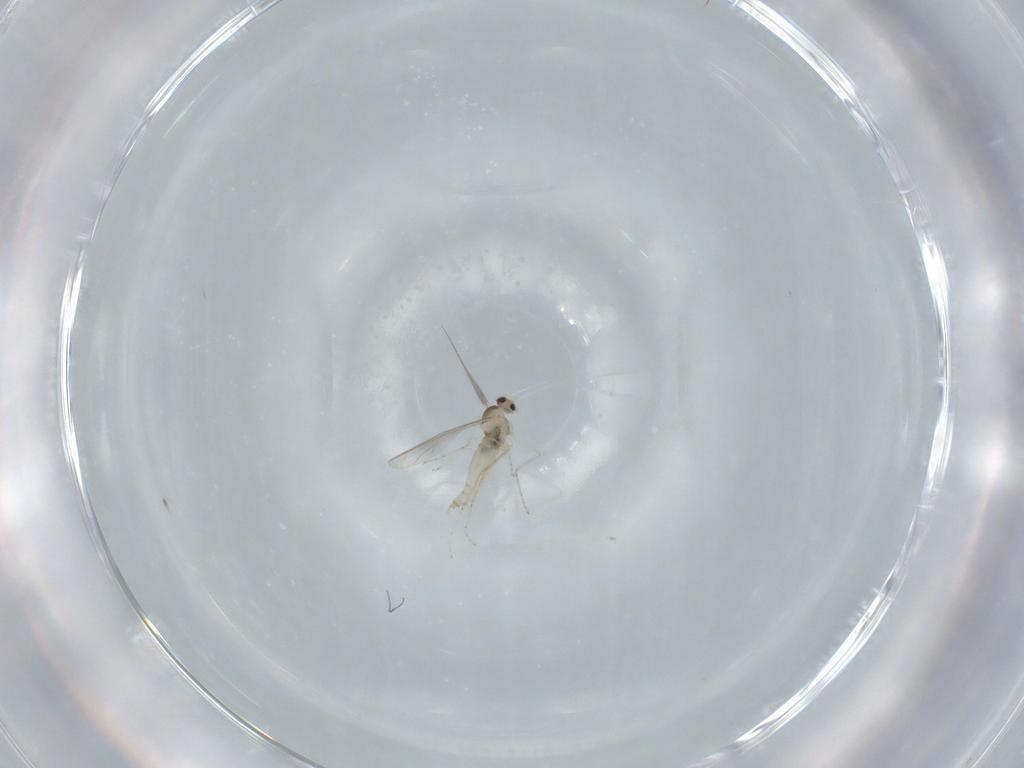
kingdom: Animalia
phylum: Arthropoda
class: Insecta
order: Diptera
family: Cecidomyiidae
